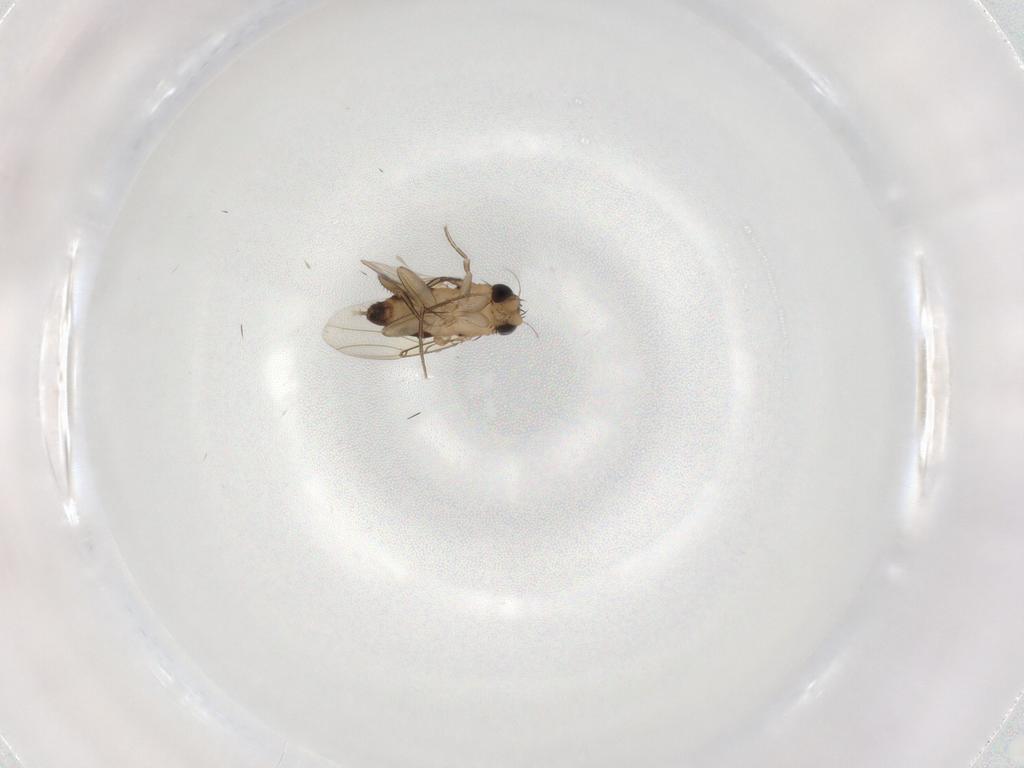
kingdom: Animalia
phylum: Arthropoda
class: Insecta
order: Diptera
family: Phoridae
